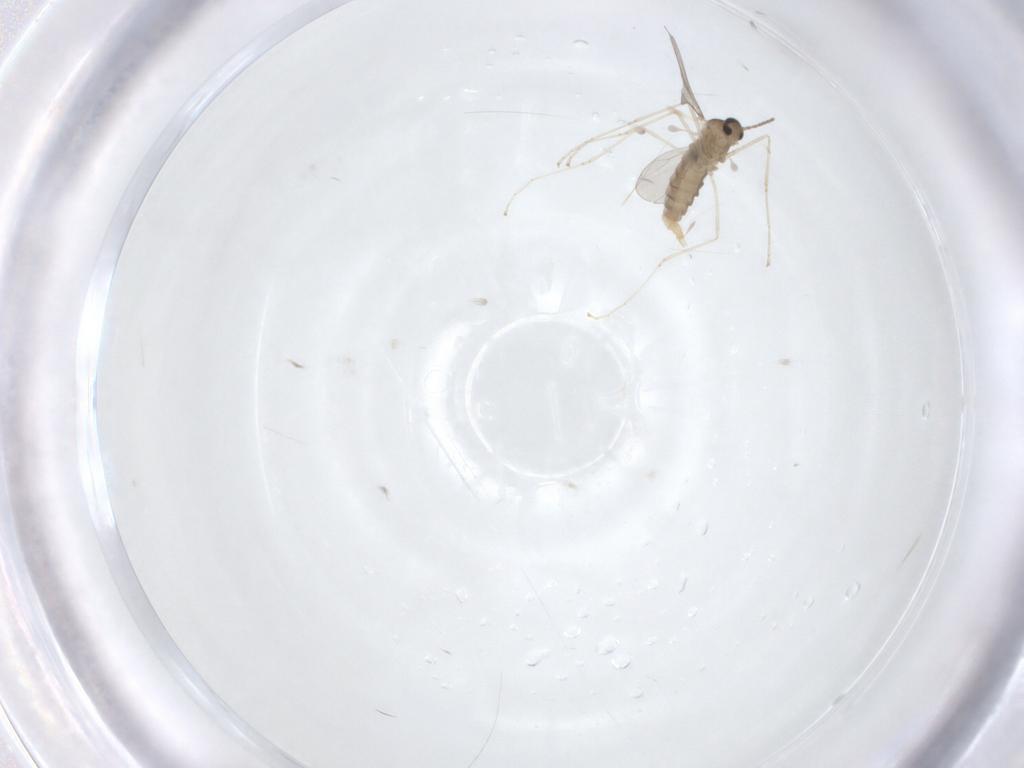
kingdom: Animalia
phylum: Arthropoda
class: Insecta
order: Diptera
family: Cecidomyiidae
